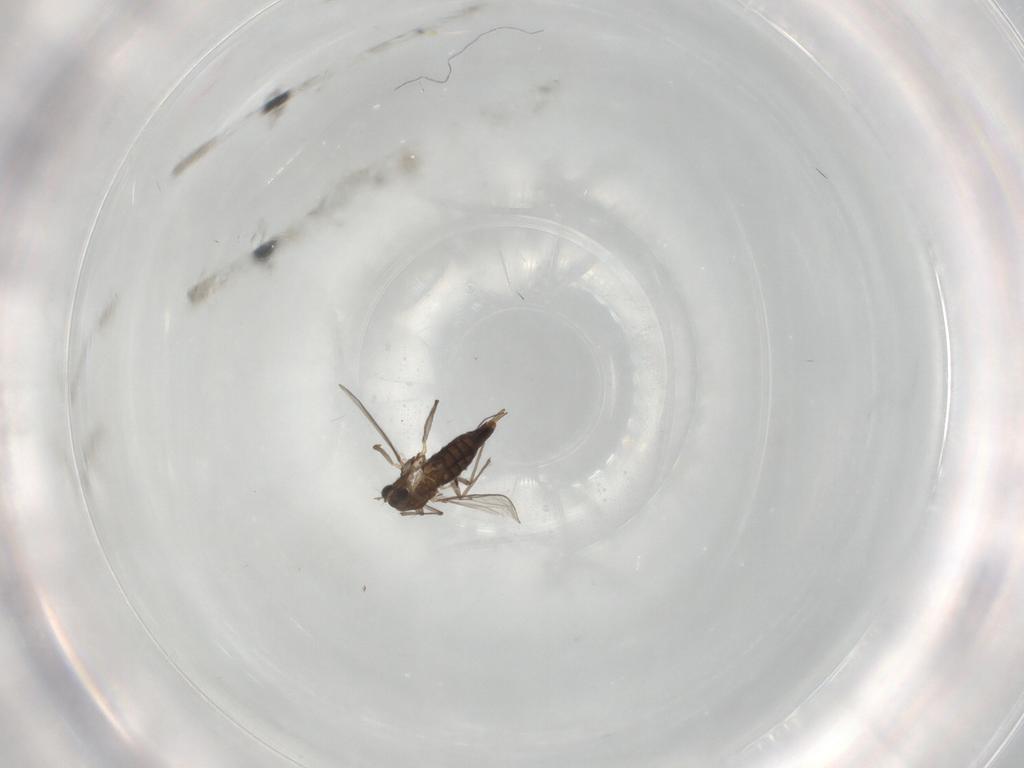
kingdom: Animalia
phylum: Arthropoda
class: Insecta
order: Diptera
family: Chironomidae
